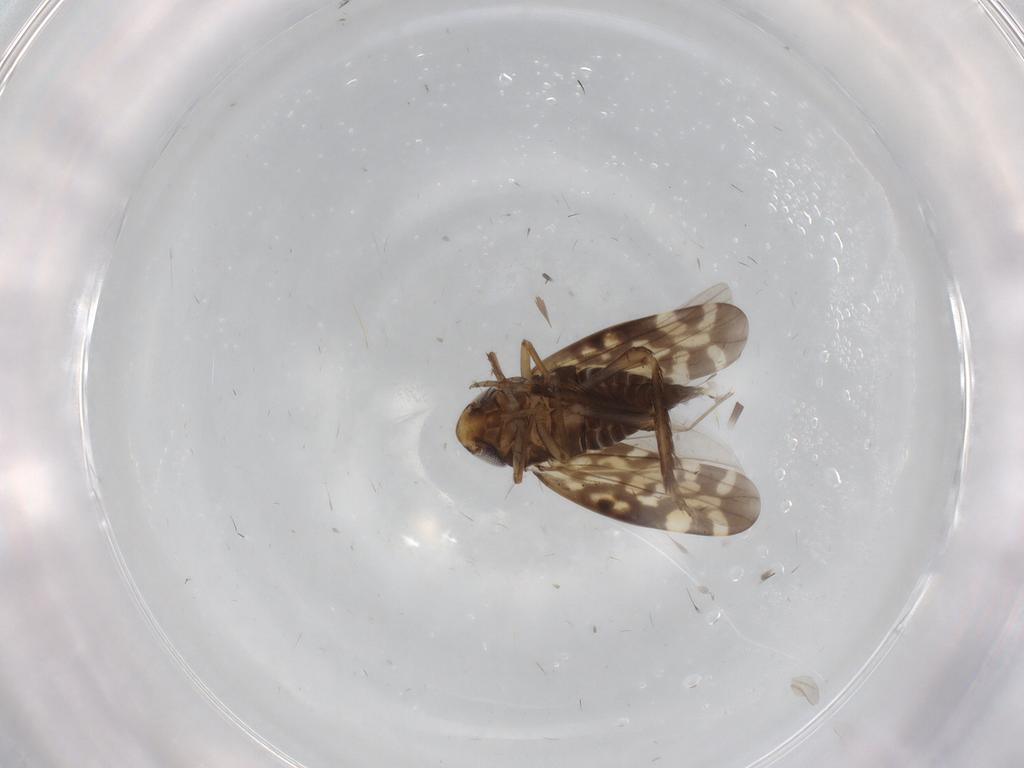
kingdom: Animalia
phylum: Arthropoda
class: Insecta
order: Hemiptera
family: Cicadellidae
